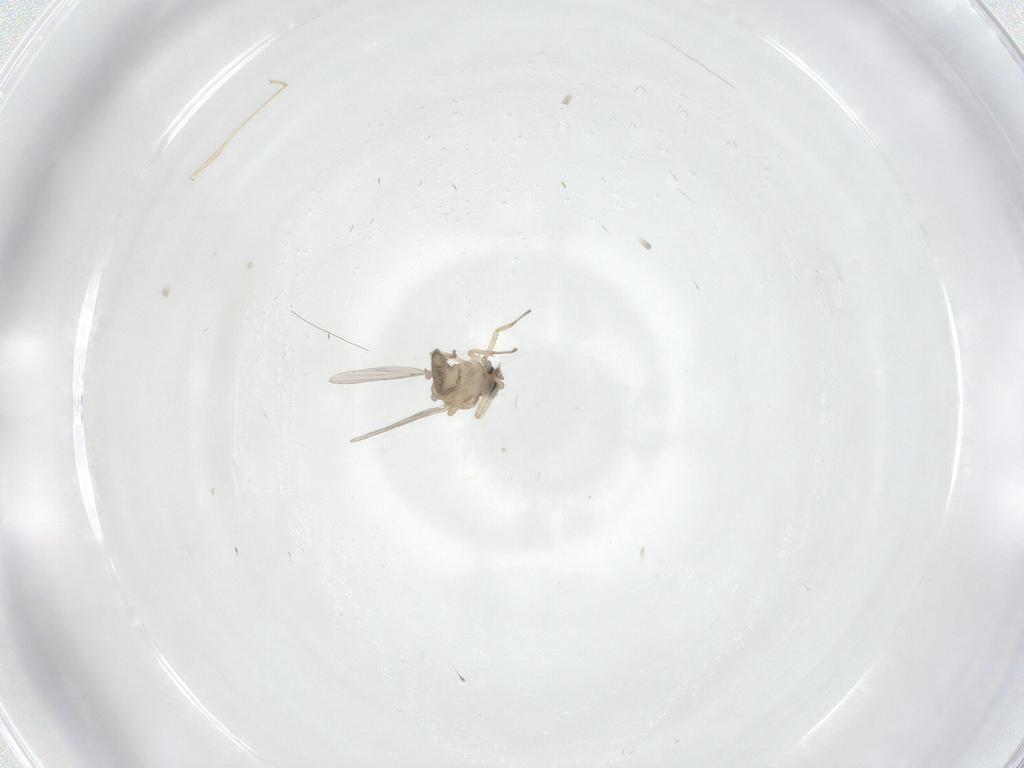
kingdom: Animalia
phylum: Arthropoda
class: Insecta
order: Diptera
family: Ceratopogonidae
